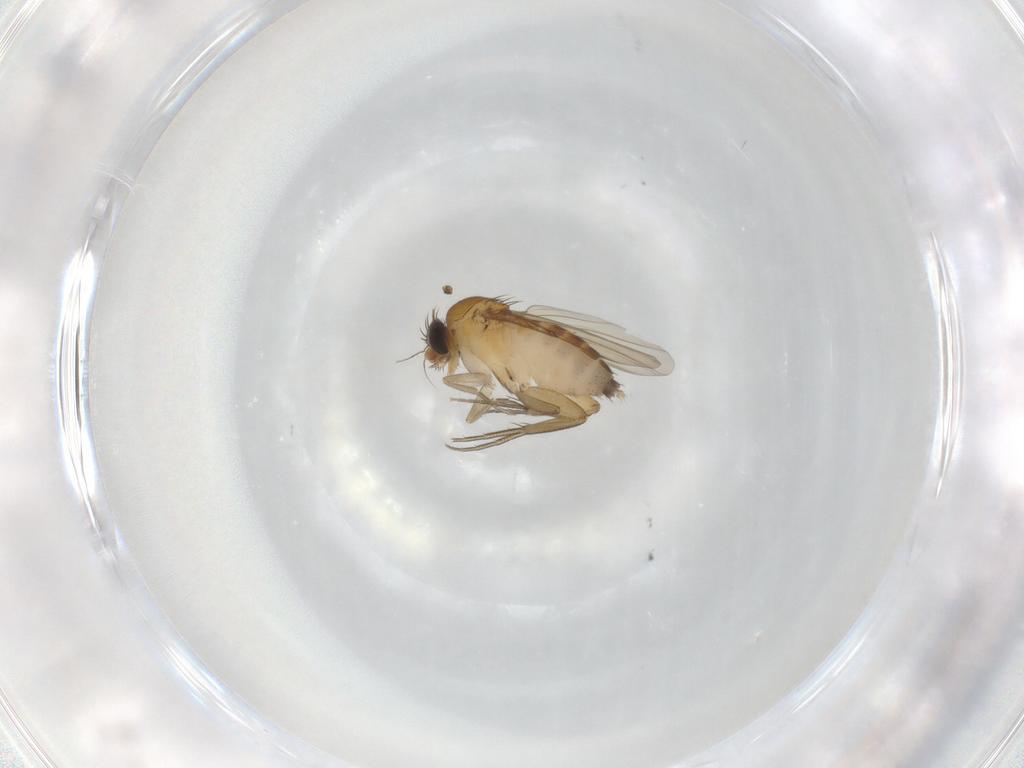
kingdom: Animalia
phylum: Arthropoda
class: Insecta
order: Diptera
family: Phoridae
